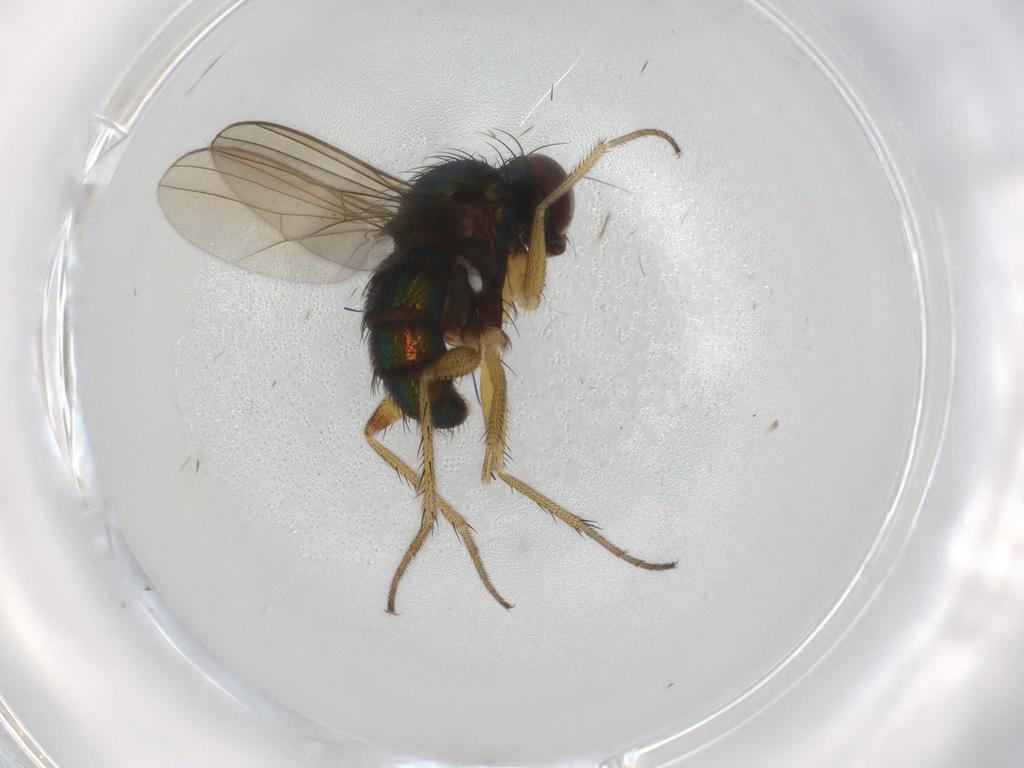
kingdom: Animalia
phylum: Arthropoda
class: Insecta
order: Diptera
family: Dolichopodidae
